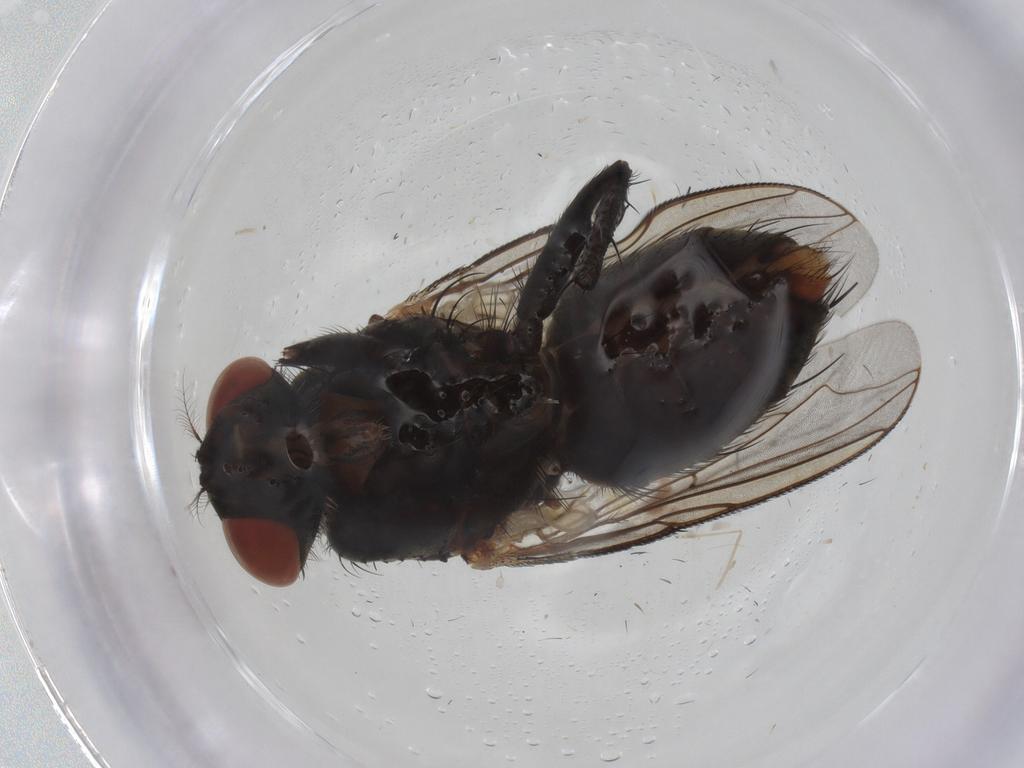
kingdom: Animalia
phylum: Arthropoda
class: Insecta
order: Diptera
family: Sarcophagidae
